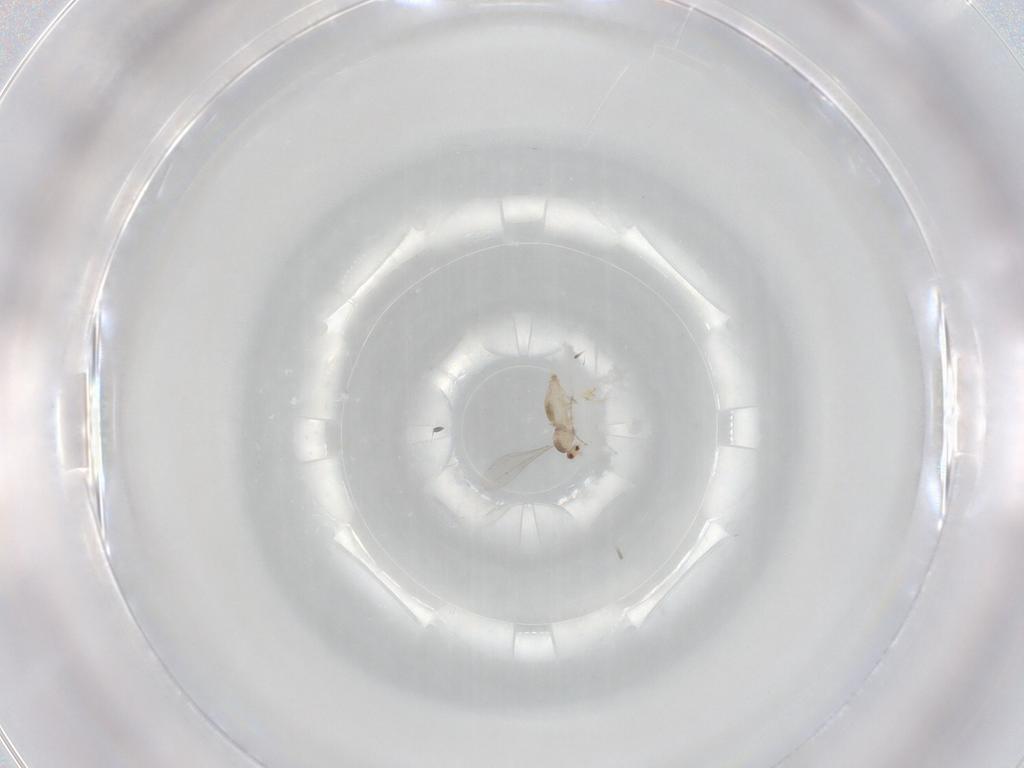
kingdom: Animalia
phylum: Arthropoda
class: Insecta
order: Diptera
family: Cecidomyiidae
